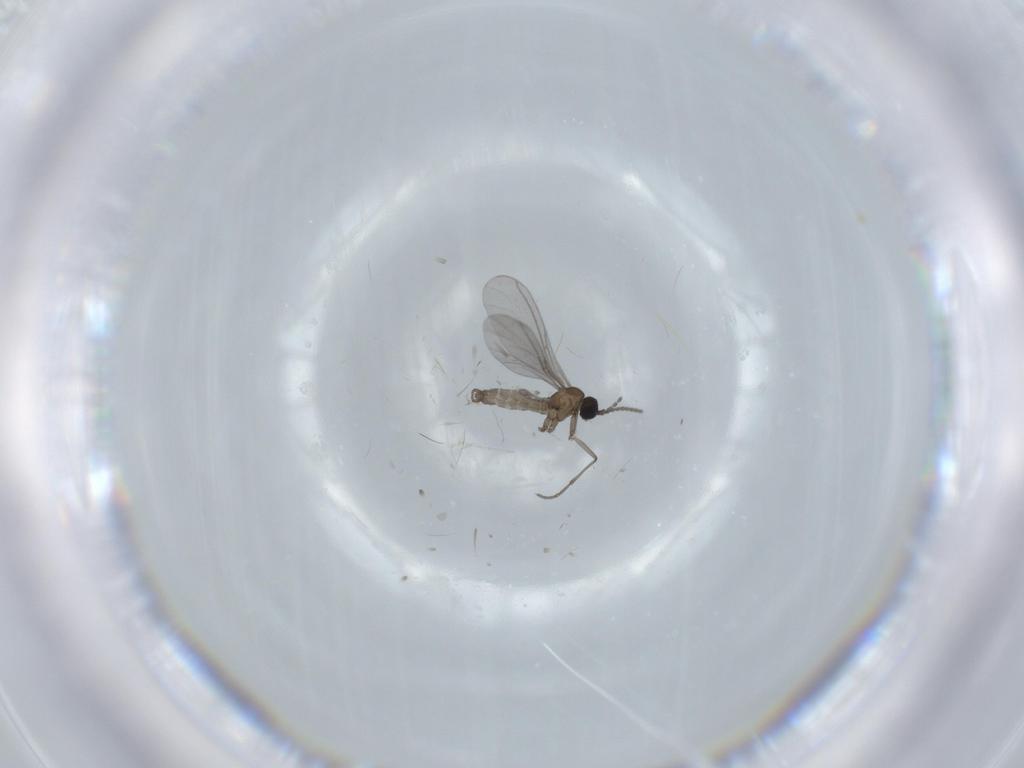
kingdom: Animalia
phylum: Arthropoda
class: Insecta
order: Diptera
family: Sciaridae
